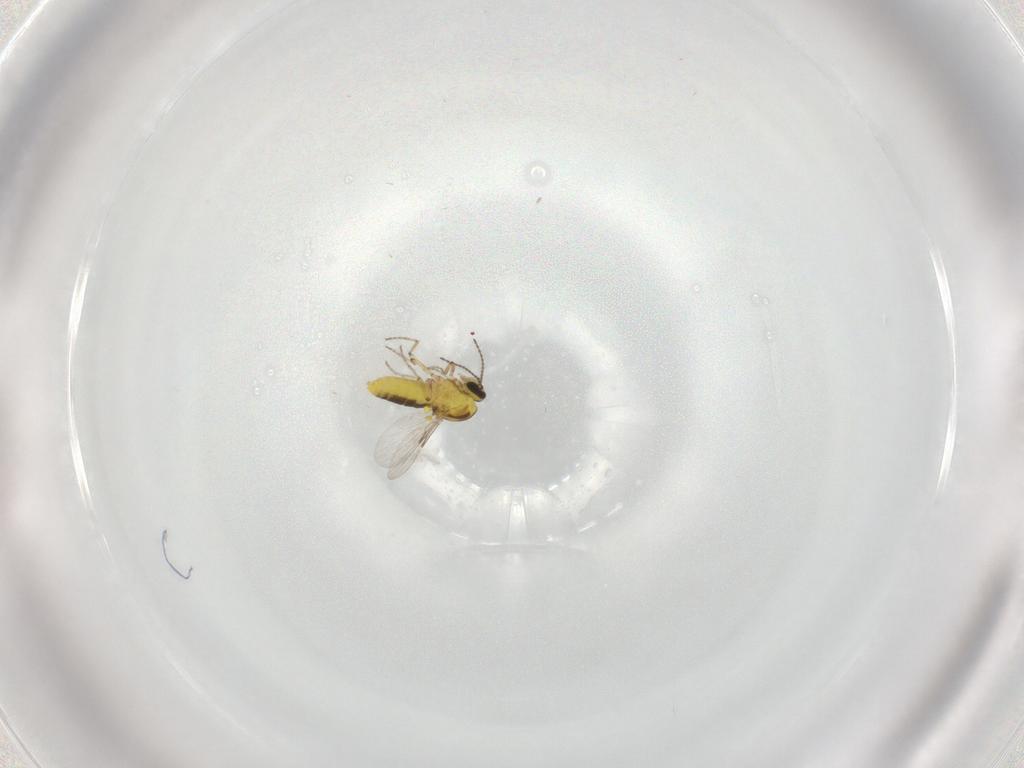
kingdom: Animalia
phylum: Arthropoda
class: Insecta
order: Diptera
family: Ceratopogonidae
